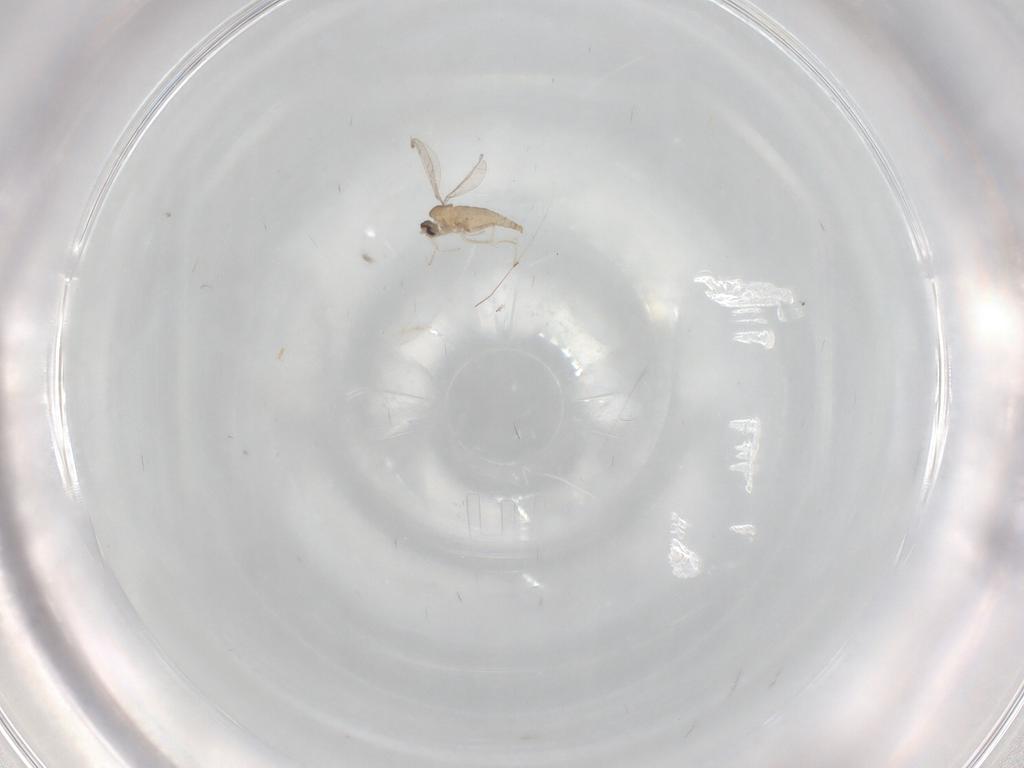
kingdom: Animalia
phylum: Arthropoda
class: Insecta
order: Diptera
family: Cecidomyiidae
